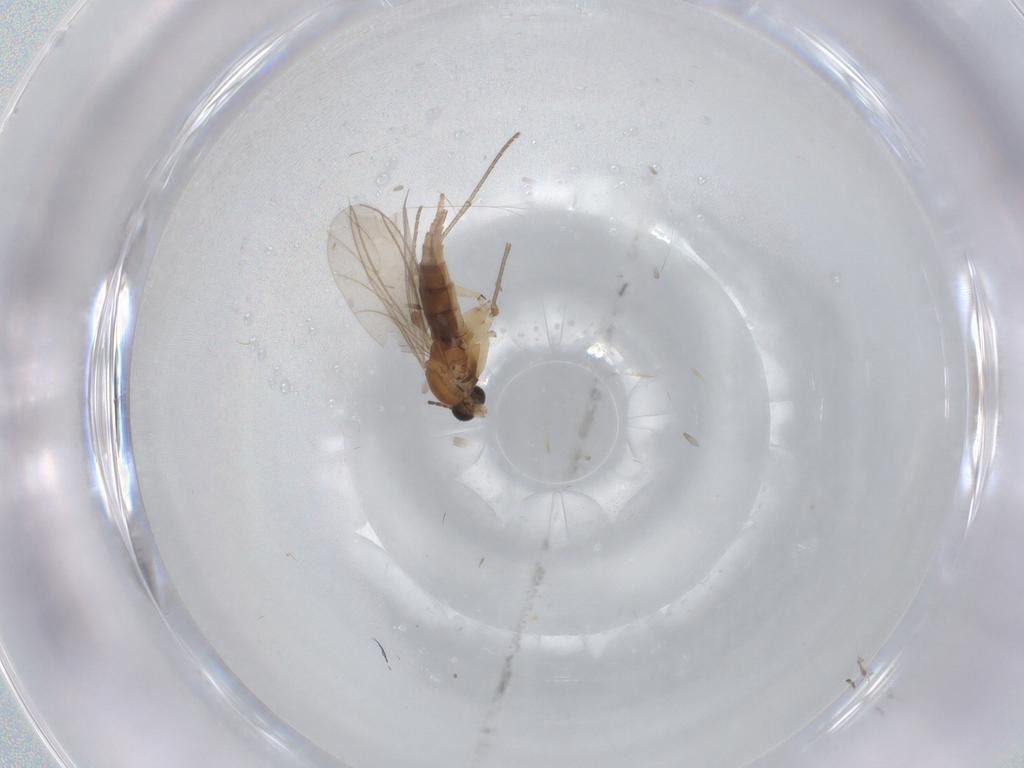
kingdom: Animalia
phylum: Arthropoda
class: Insecta
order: Diptera
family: Sciaridae
